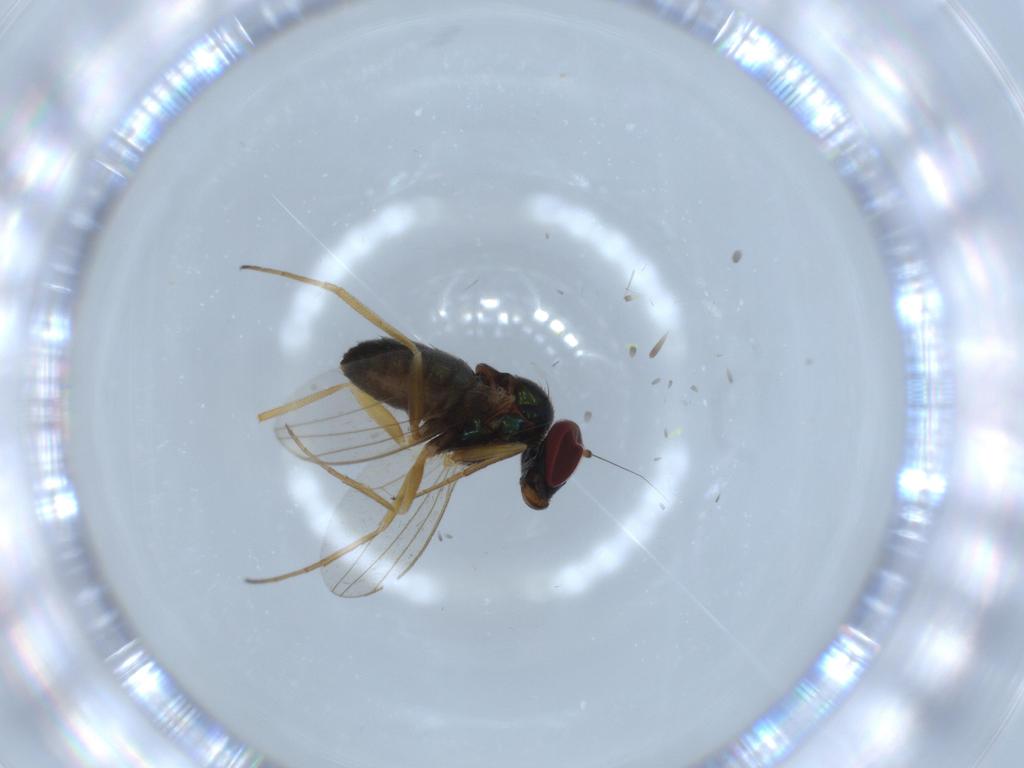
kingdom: Animalia
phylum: Arthropoda
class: Insecta
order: Diptera
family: Dolichopodidae
